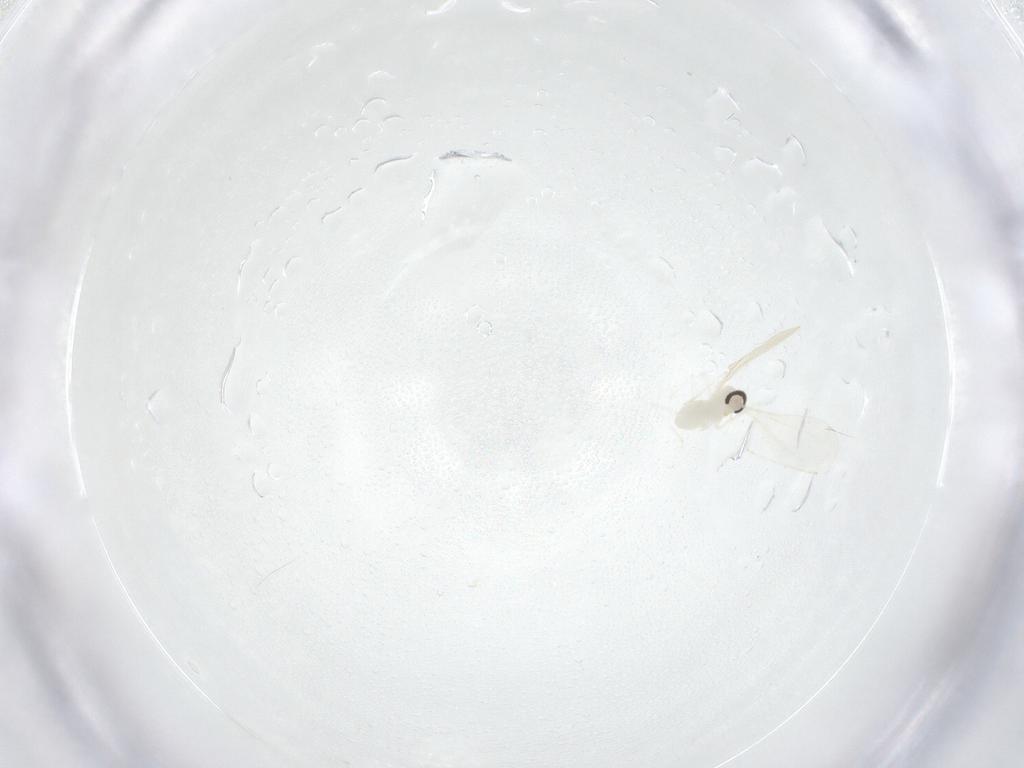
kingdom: Animalia
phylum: Arthropoda
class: Insecta
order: Diptera
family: Cecidomyiidae
